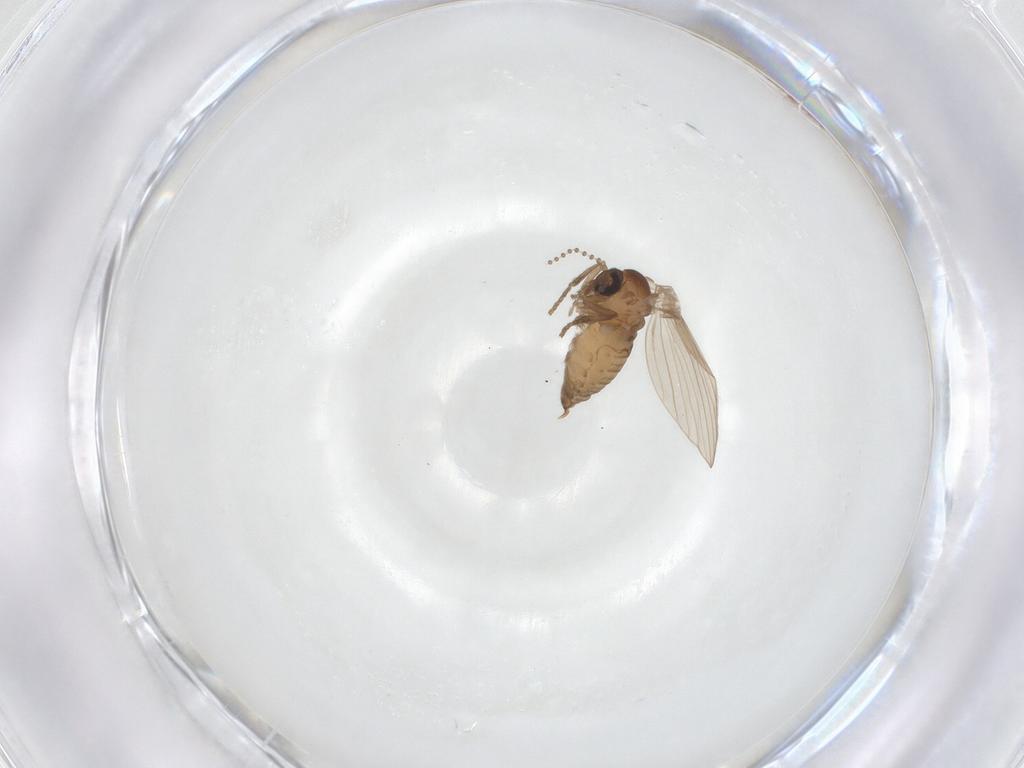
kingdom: Animalia
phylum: Arthropoda
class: Insecta
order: Diptera
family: Psychodidae
